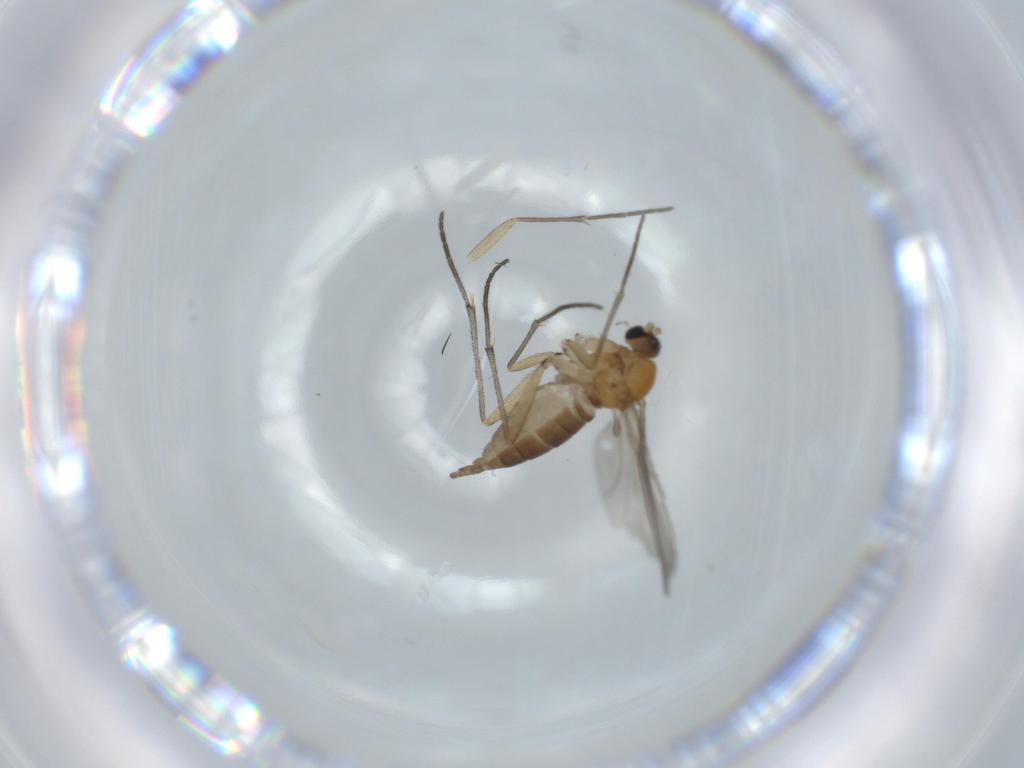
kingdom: Animalia
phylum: Arthropoda
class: Insecta
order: Diptera
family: Sciaridae
